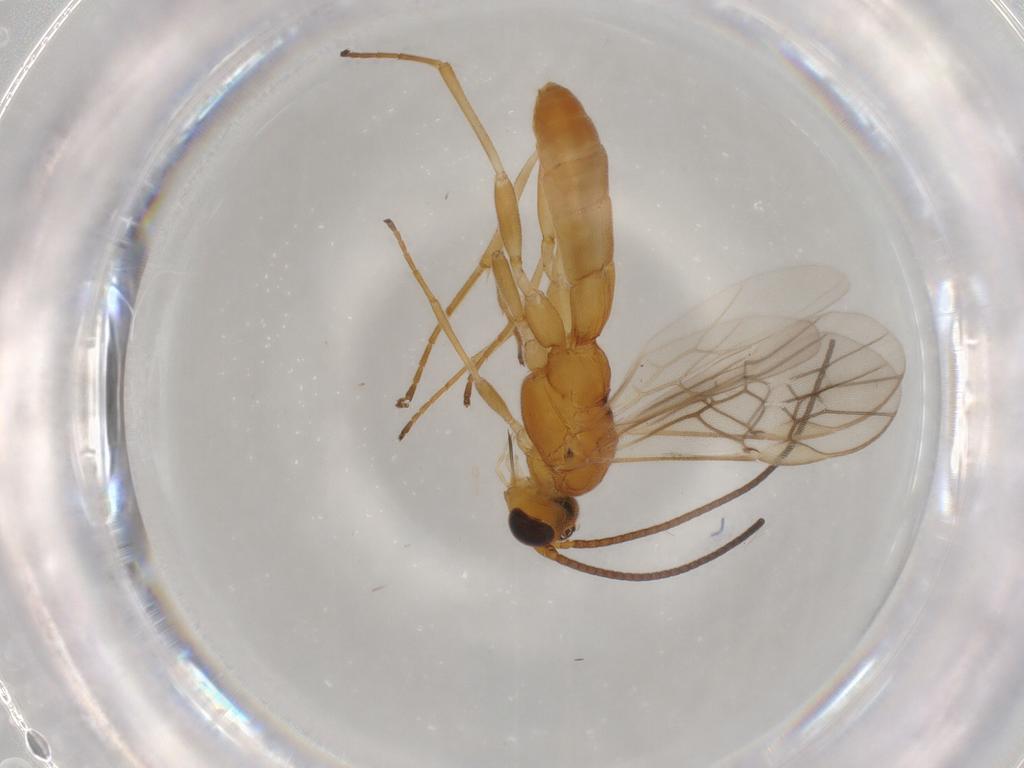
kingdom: Animalia
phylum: Arthropoda
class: Insecta
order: Hymenoptera
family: Braconidae
